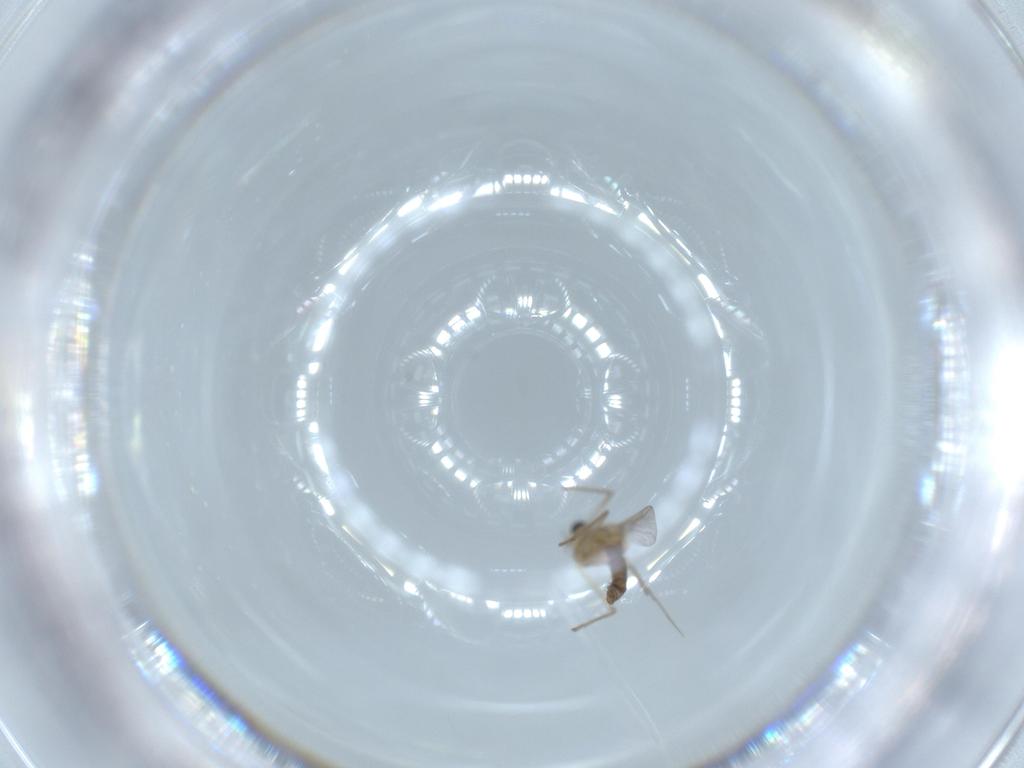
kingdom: Animalia
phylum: Arthropoda
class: Insecta
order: Diptera
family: Chironomidae
